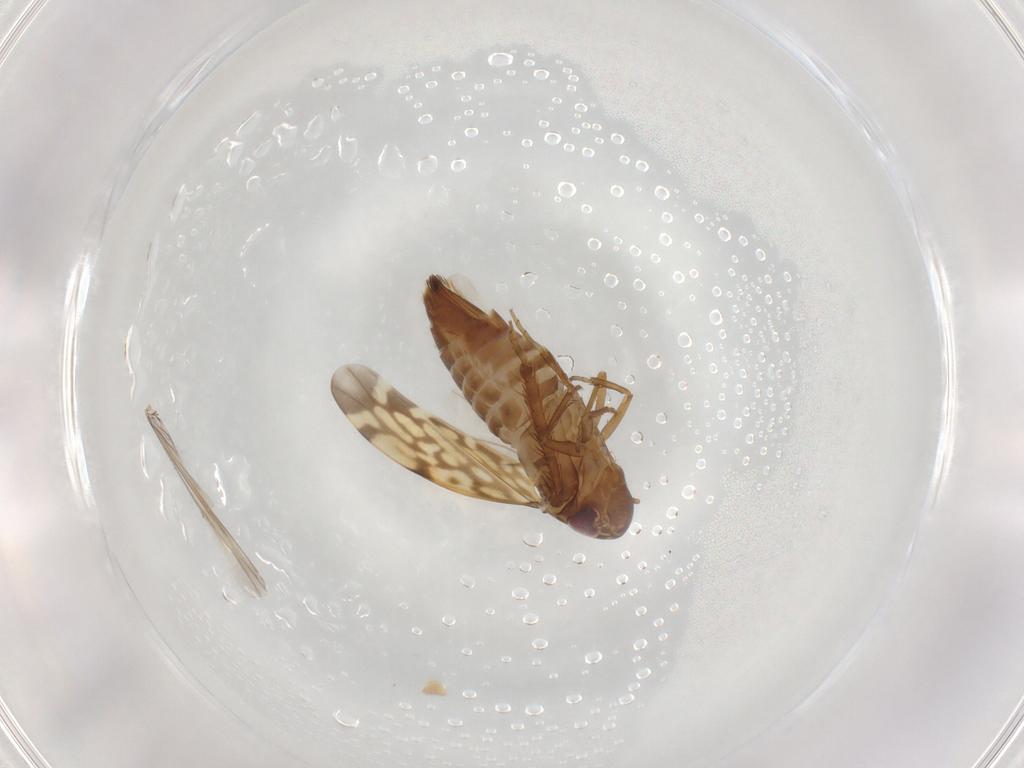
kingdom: Animalia
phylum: Arthropoda
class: Insecta
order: Hemiptera
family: Cicadellidae
